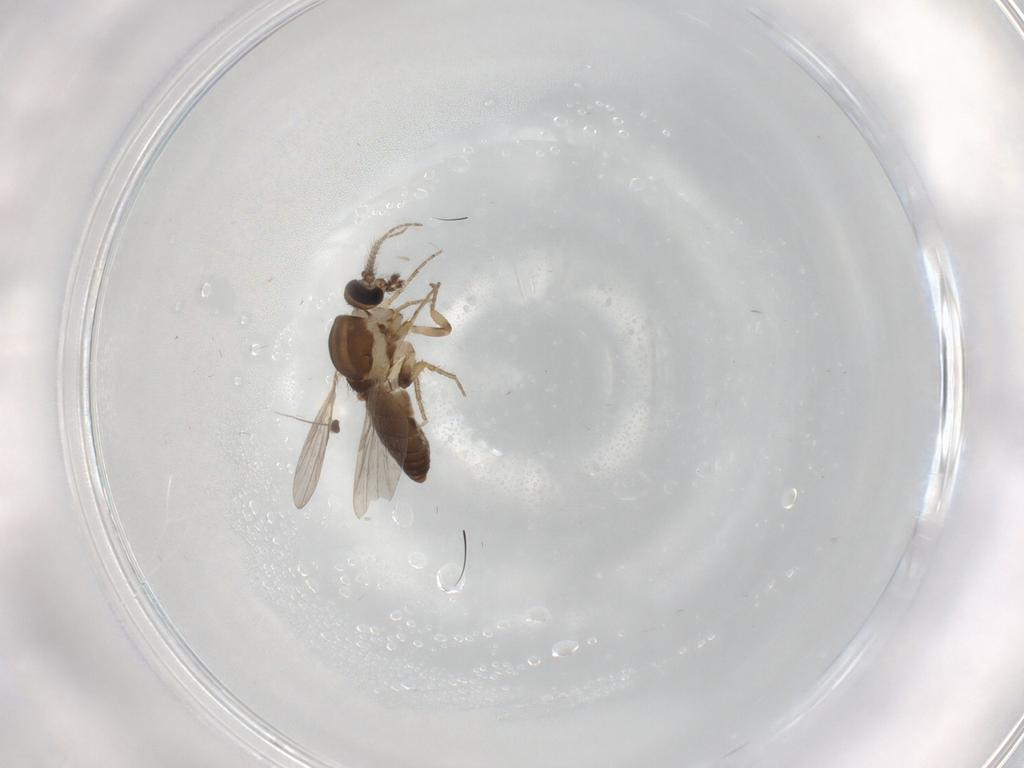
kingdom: Animalia
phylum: Arthropoda
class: Insecta
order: Diptera
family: Ceratopogonidae
